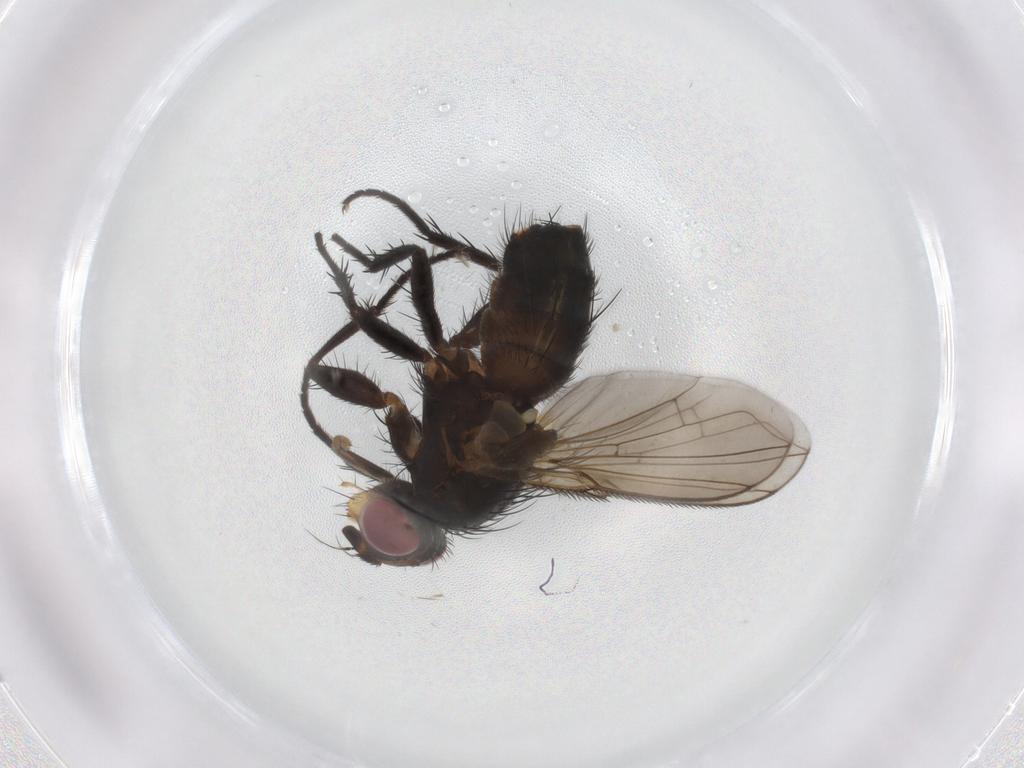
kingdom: Animalia
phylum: Arthropoda
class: Insecta
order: Diptera
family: Tachinidae
